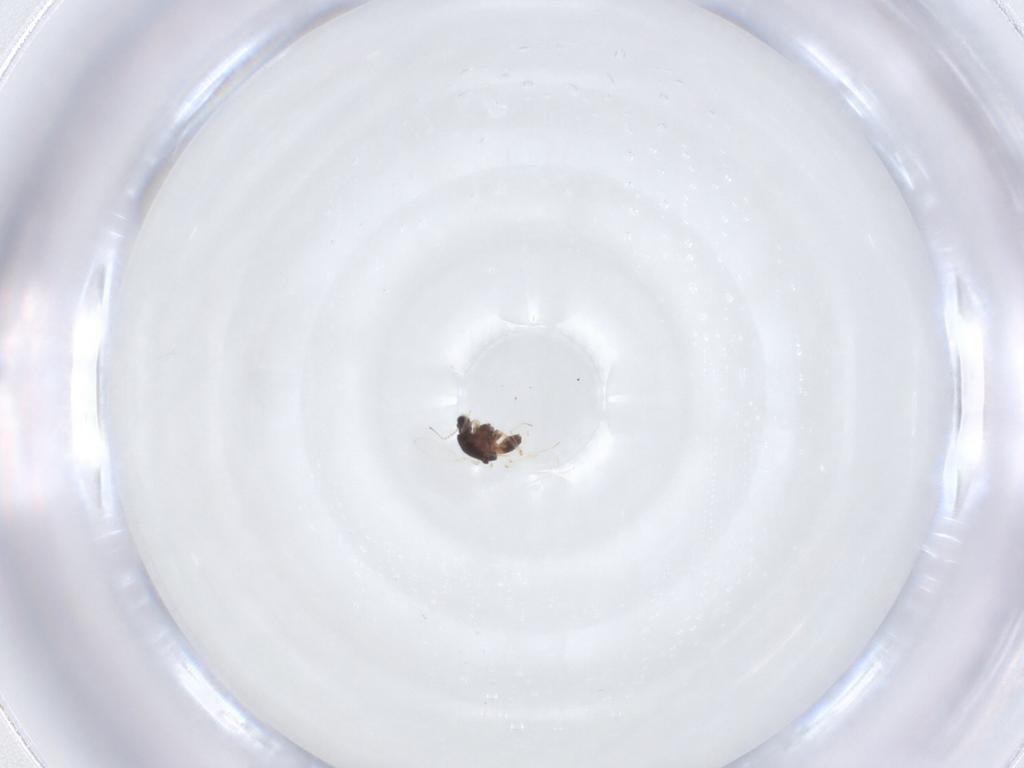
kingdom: Animalia
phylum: Arthropoda
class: Insecta
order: Diptera
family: Chironomidae
